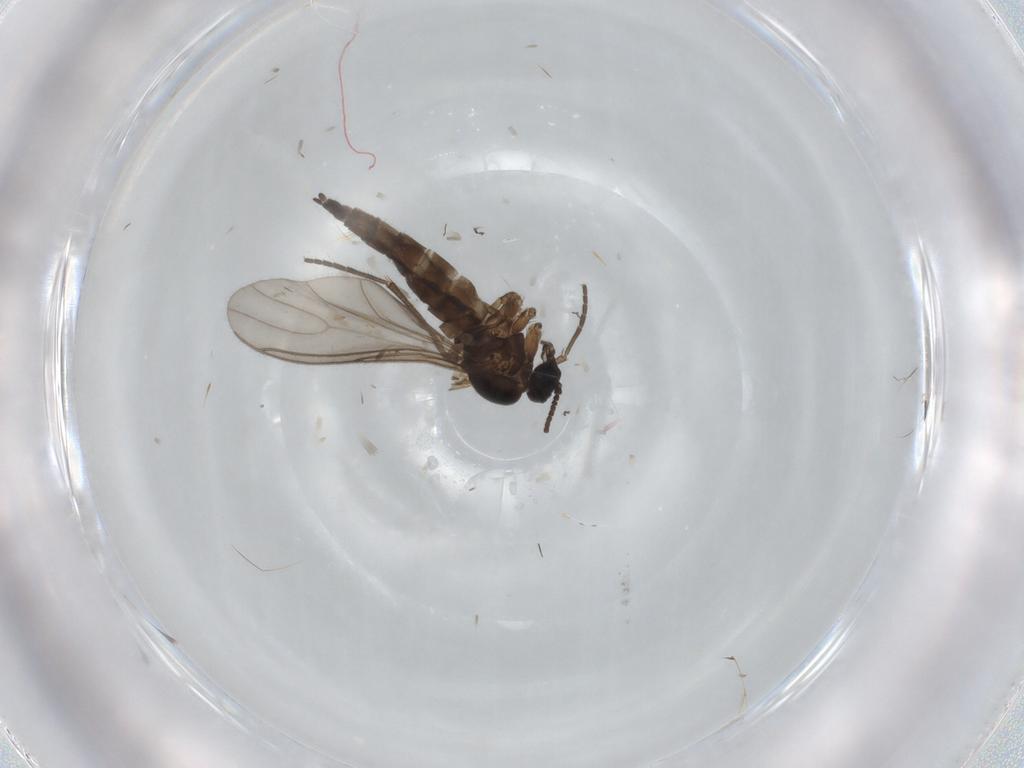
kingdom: Animalia
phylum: Arthropoda
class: Insecta
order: Diptera
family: Sciaridae
